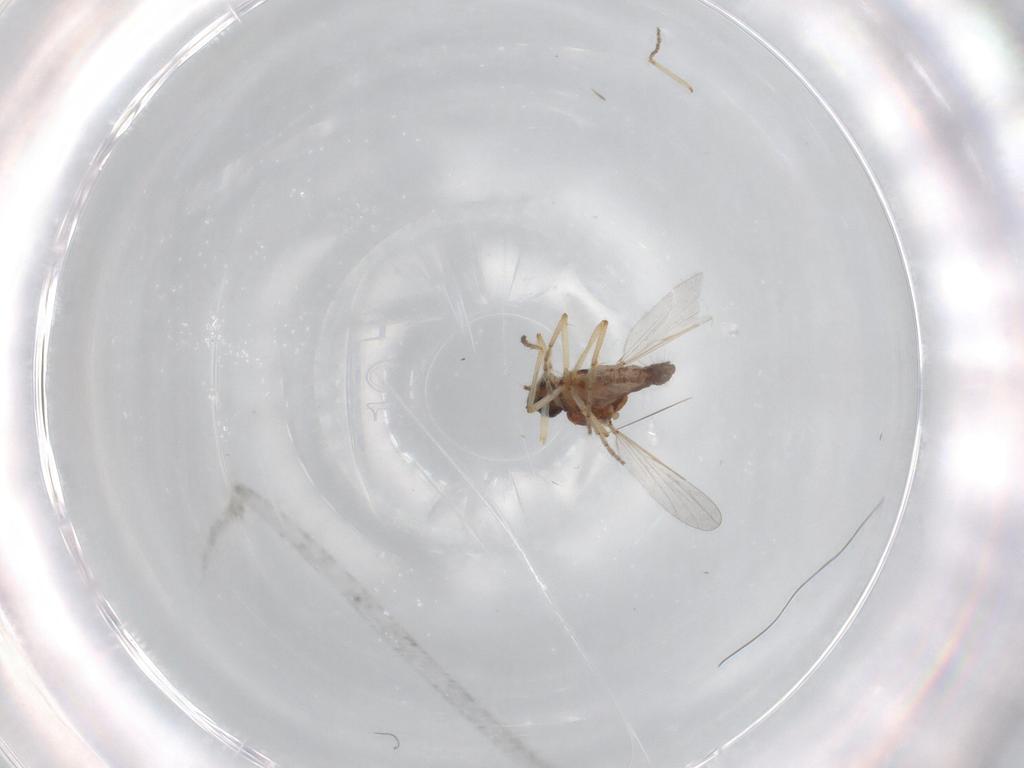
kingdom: Animalia
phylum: Arthropoda
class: Insecta
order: Diptera
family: Ceratopogonidae
